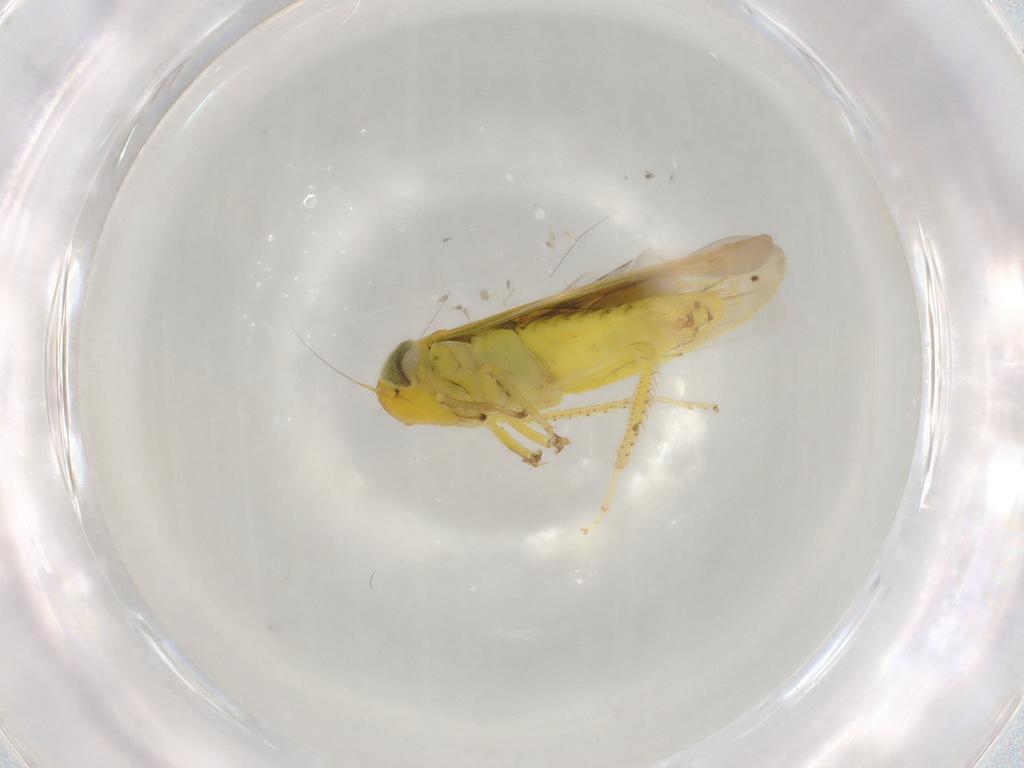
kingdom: Animalia
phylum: Arthropoda
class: Insecta
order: Hemiptera
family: Cicadellidae
